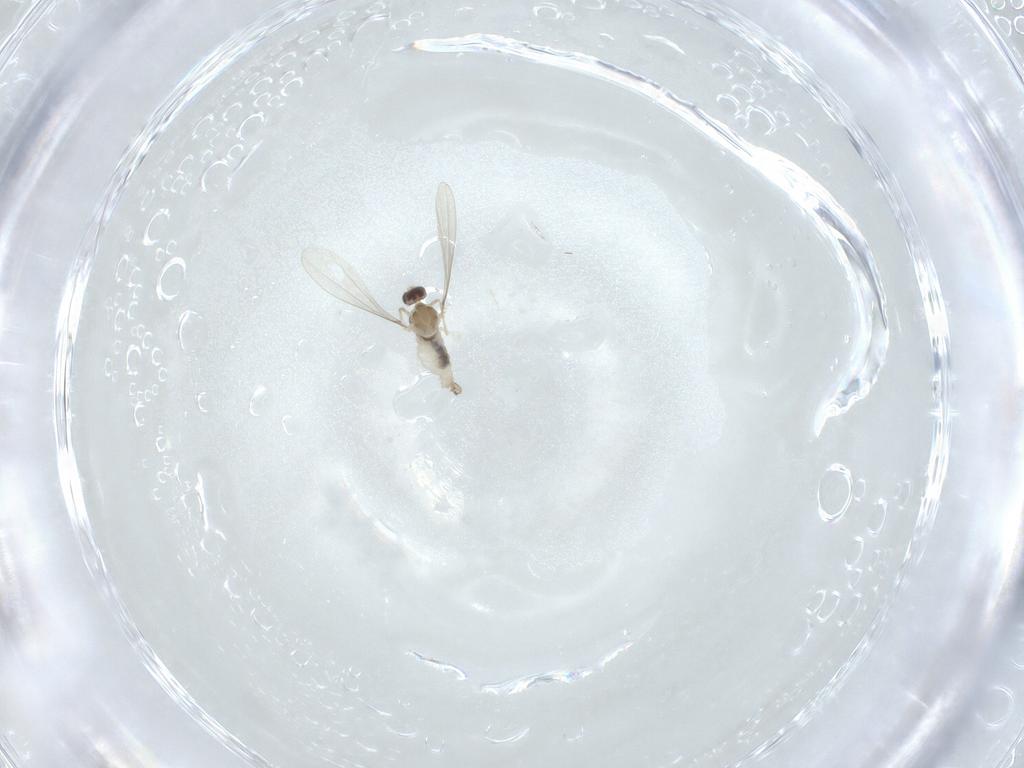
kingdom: Animalia
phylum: Arthropoda
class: Insecta
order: Diptera
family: Cecidomyiidae
